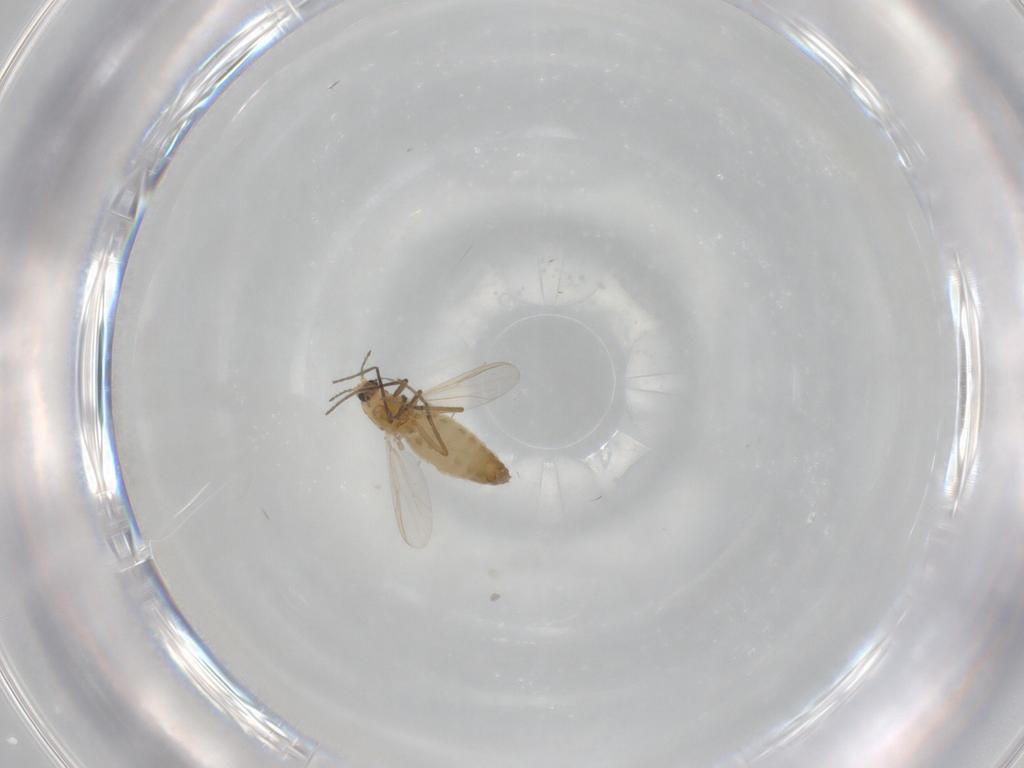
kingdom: Animalia
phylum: Arthropoda
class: Insecta
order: Diptera
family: Chironomidae
